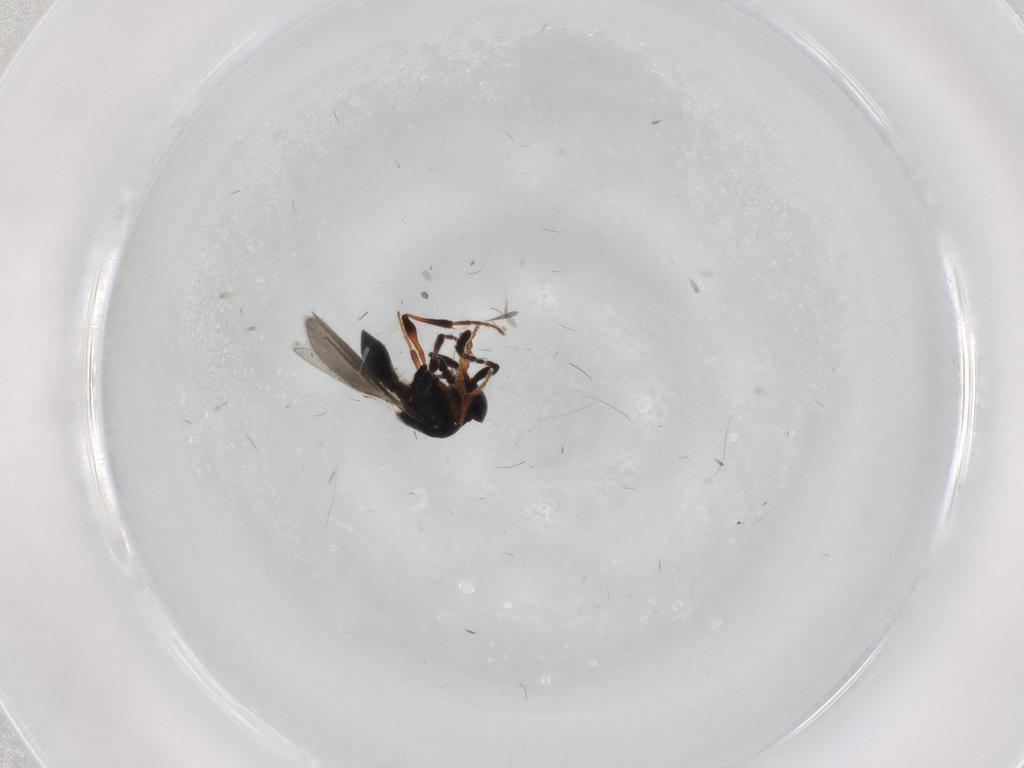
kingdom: Animalia
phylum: Arthropoda
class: Insecta
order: Hymenoptera
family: Platygastridae
